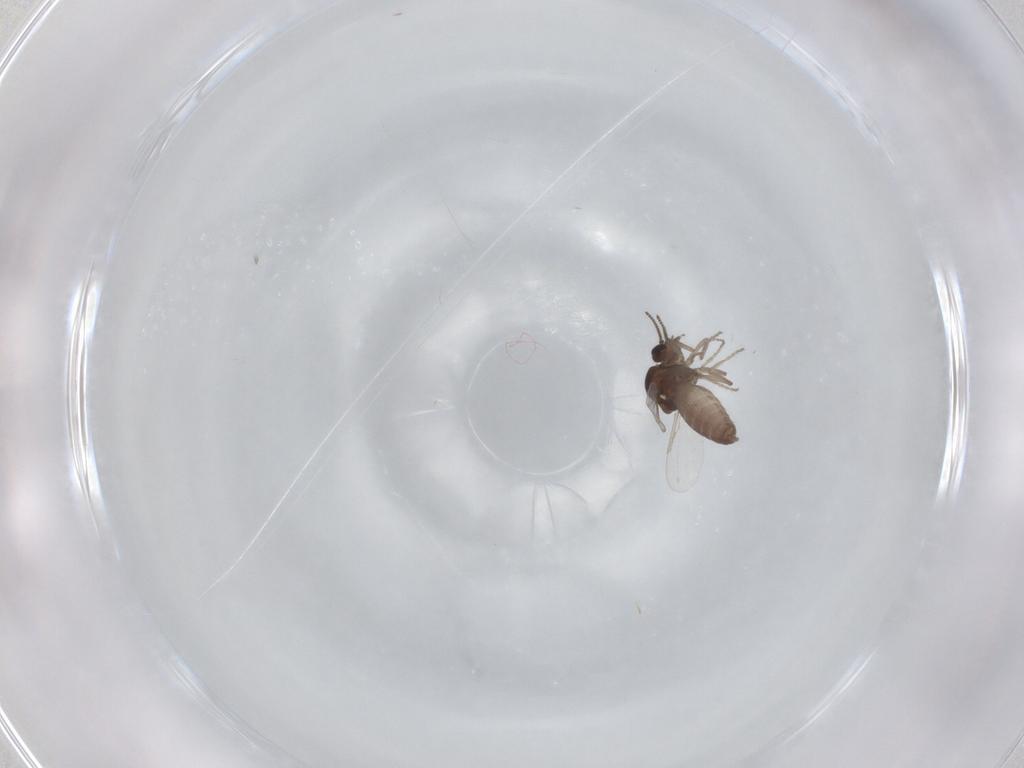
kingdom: Animalia
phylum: Arthropoda
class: Insecta
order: Diptera
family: Ceratopogonidae
